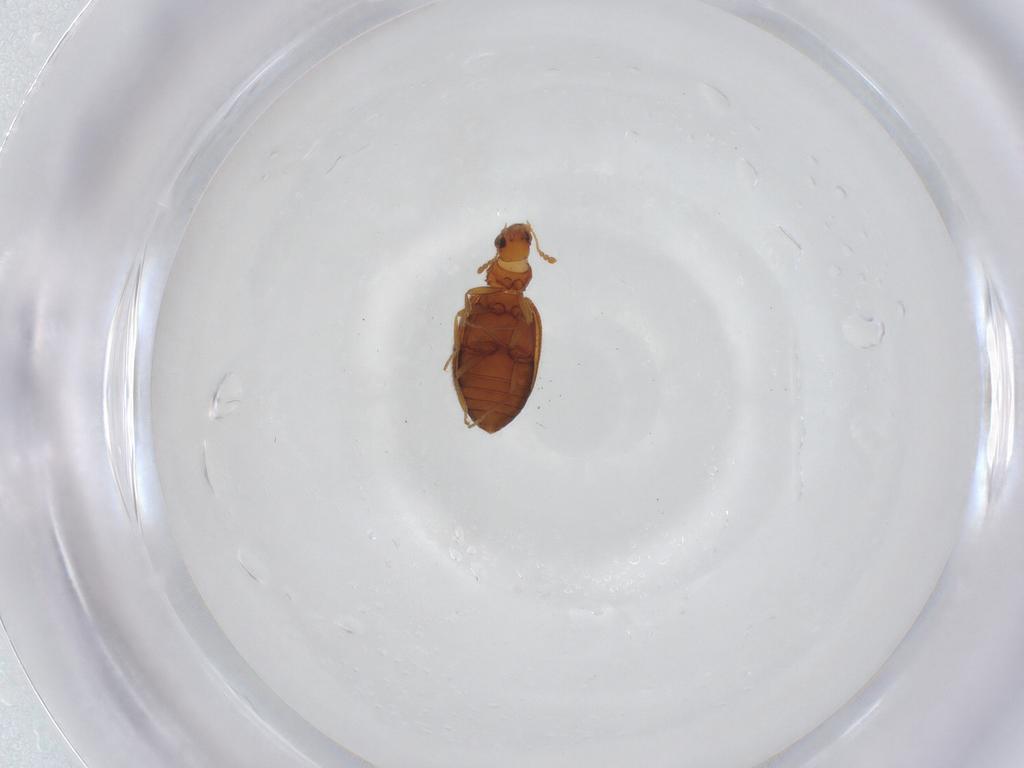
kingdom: Animalia
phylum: Arthropoda
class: Insecta
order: Coleoptera
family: Latridiidae
